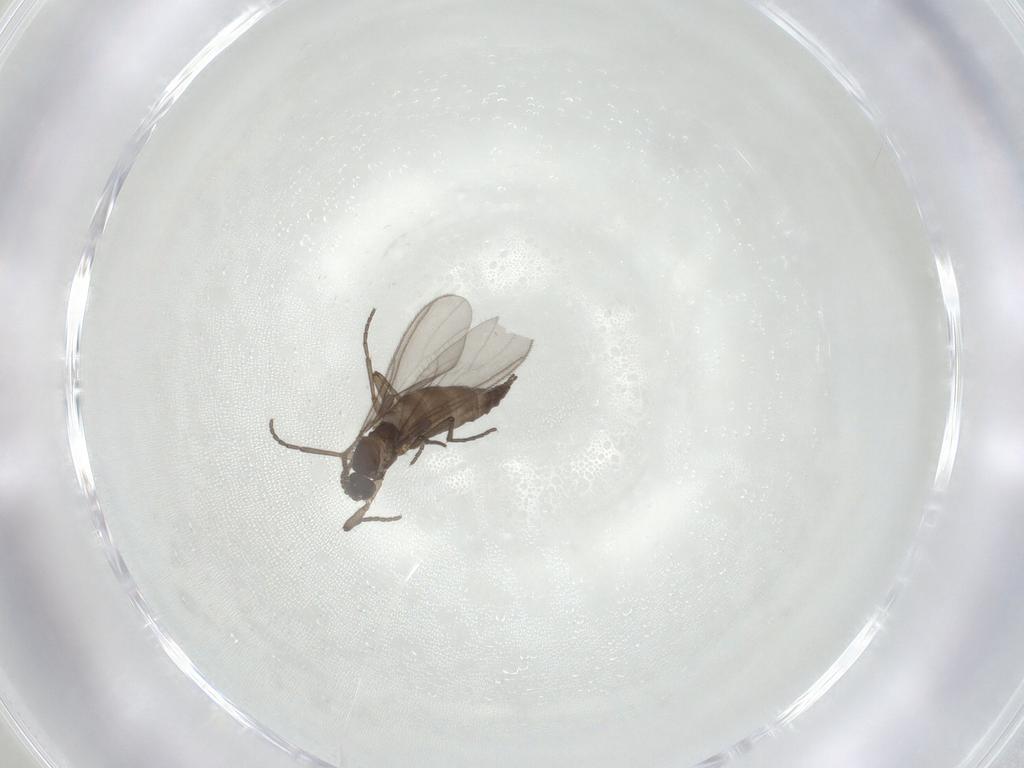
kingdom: Animalia
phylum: Arthropoda
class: Insecta
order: Diptera
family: Sciaridae
